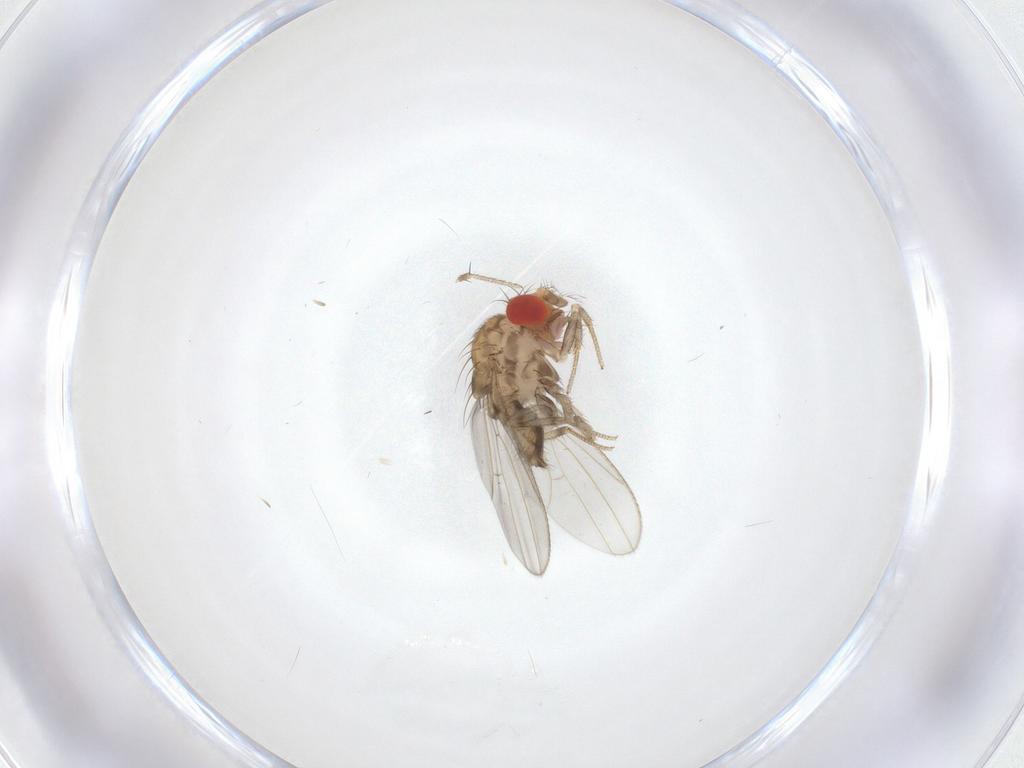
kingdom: Animalia
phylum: Arthropoda
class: Insecta
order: Diptera
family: Drosophilidae
